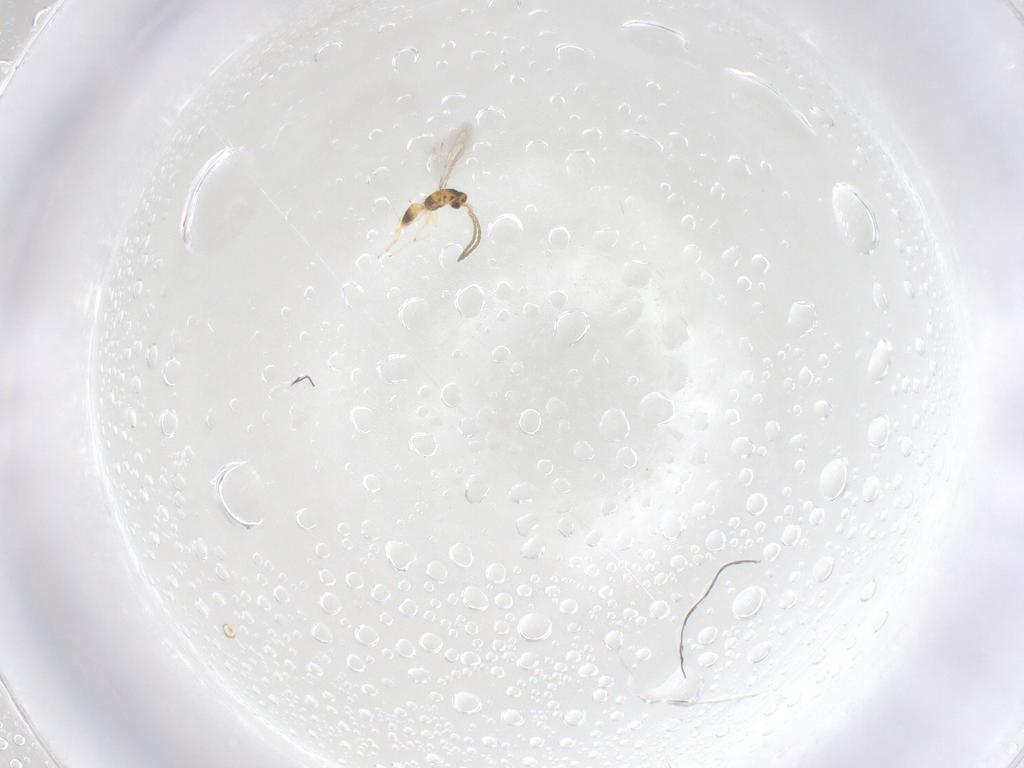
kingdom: Animalia
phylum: Arthropoda
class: Insecta
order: Hymenoptera
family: Mymaridae
